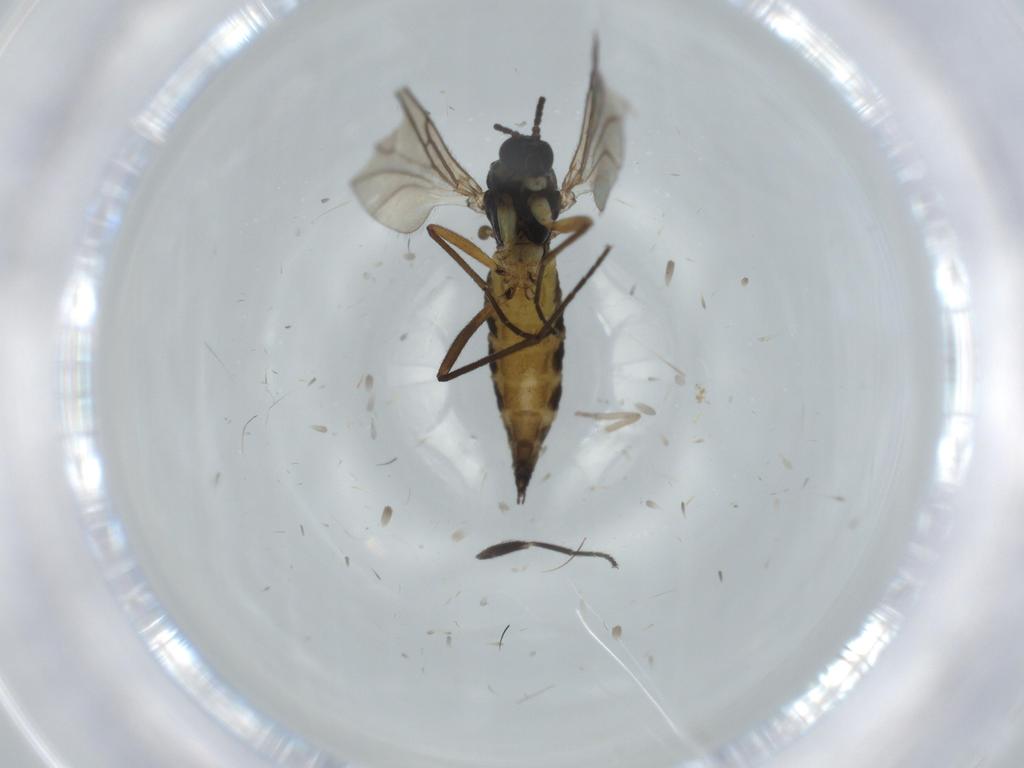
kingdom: Animalia
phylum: Arthropoda
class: Insecta
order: Diptera
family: Sciaridae
